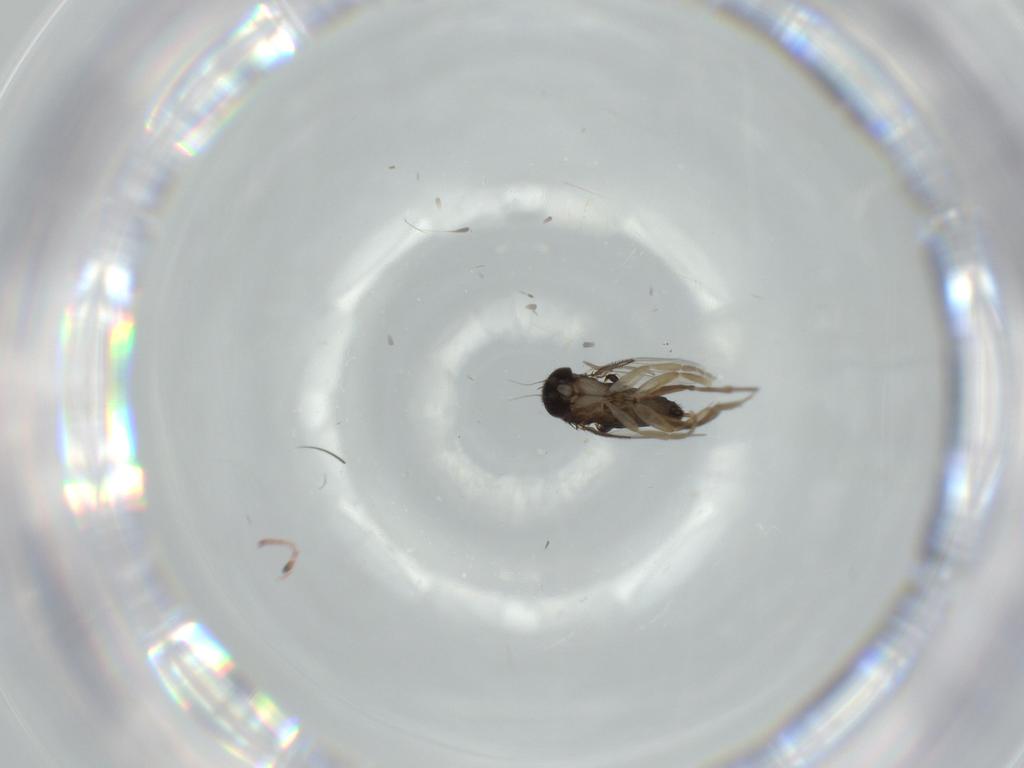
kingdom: Animalia
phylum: Arthropoda
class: Insecta
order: Diptera
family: Phoridae
